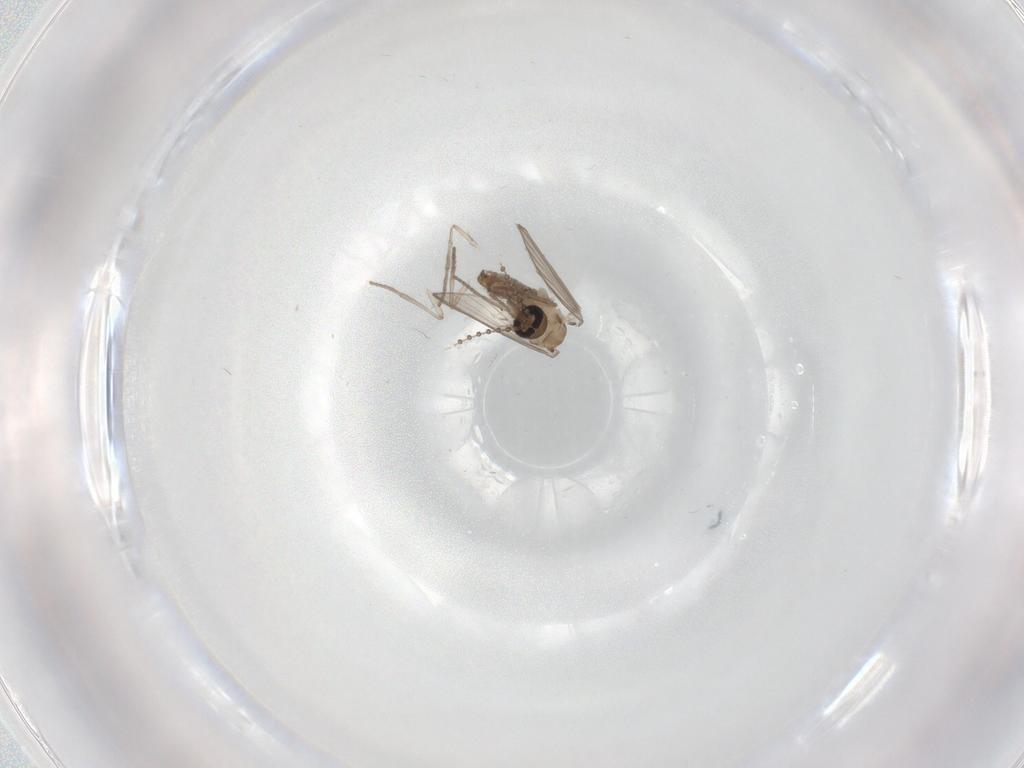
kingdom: Animalia
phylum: Arthropoda
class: Insecta
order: Diptera
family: Psychodidae
